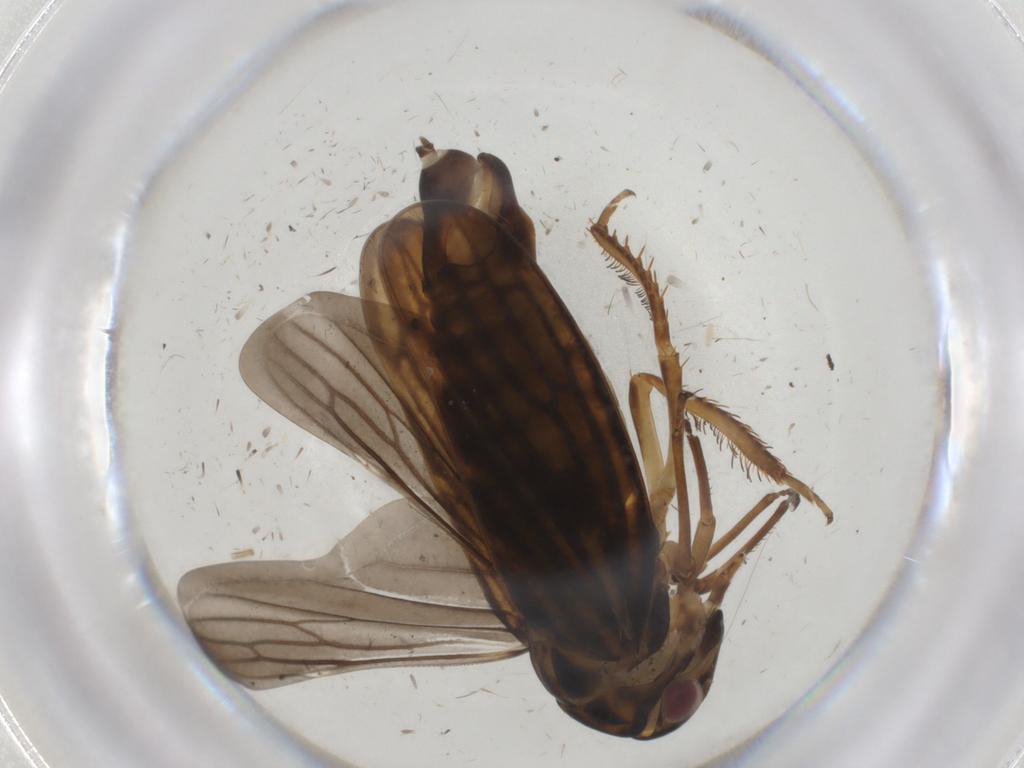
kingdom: Animalia
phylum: Arthropoda
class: Insecta
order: Hemiptera
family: Cicadellidae
